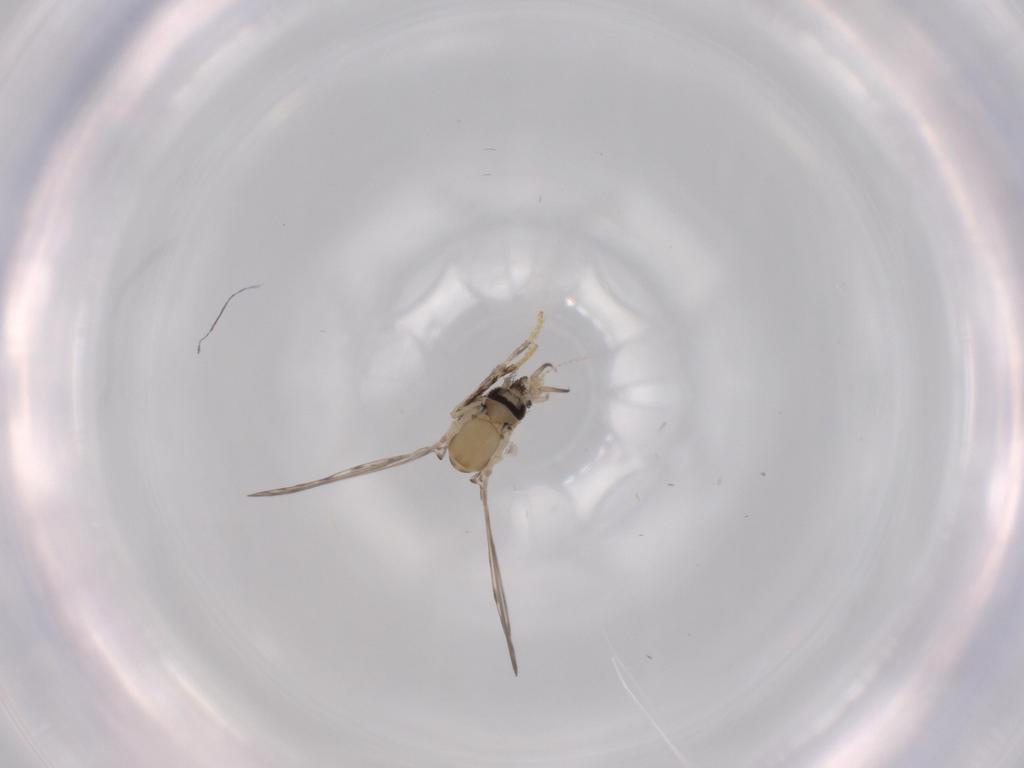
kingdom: Animalia
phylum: Arthropoda
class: Insecta
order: Diptera
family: Psychodidae
